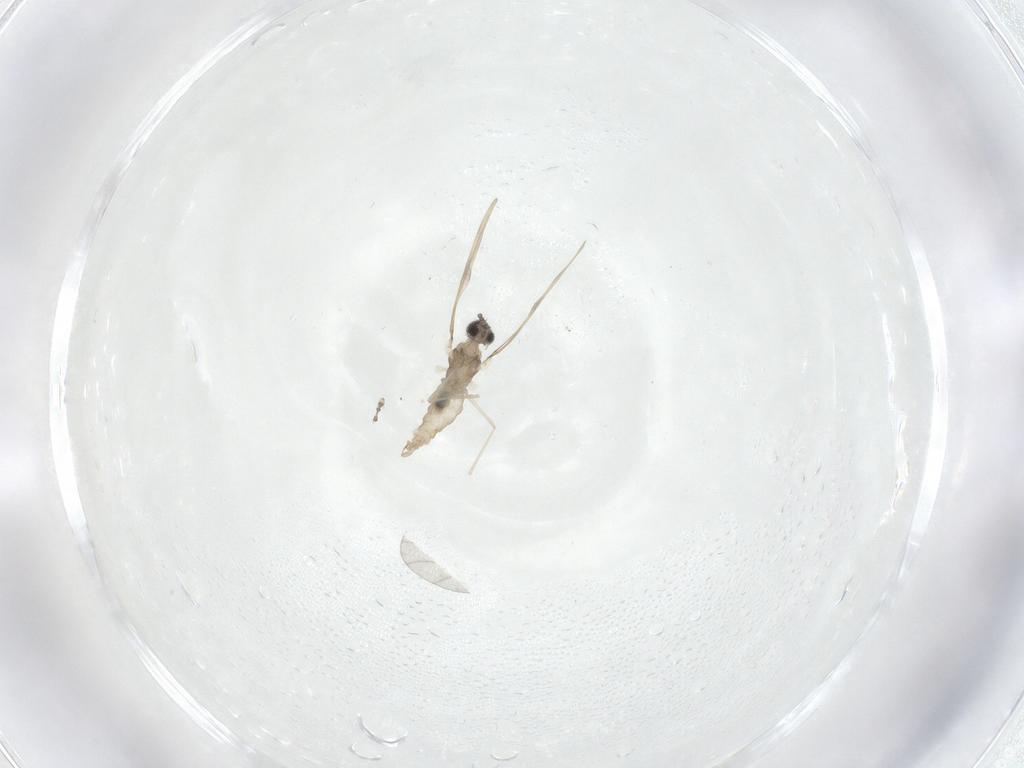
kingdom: Animalia
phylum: Arthropoda
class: Insecta
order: Diptera
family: Sciaridae
